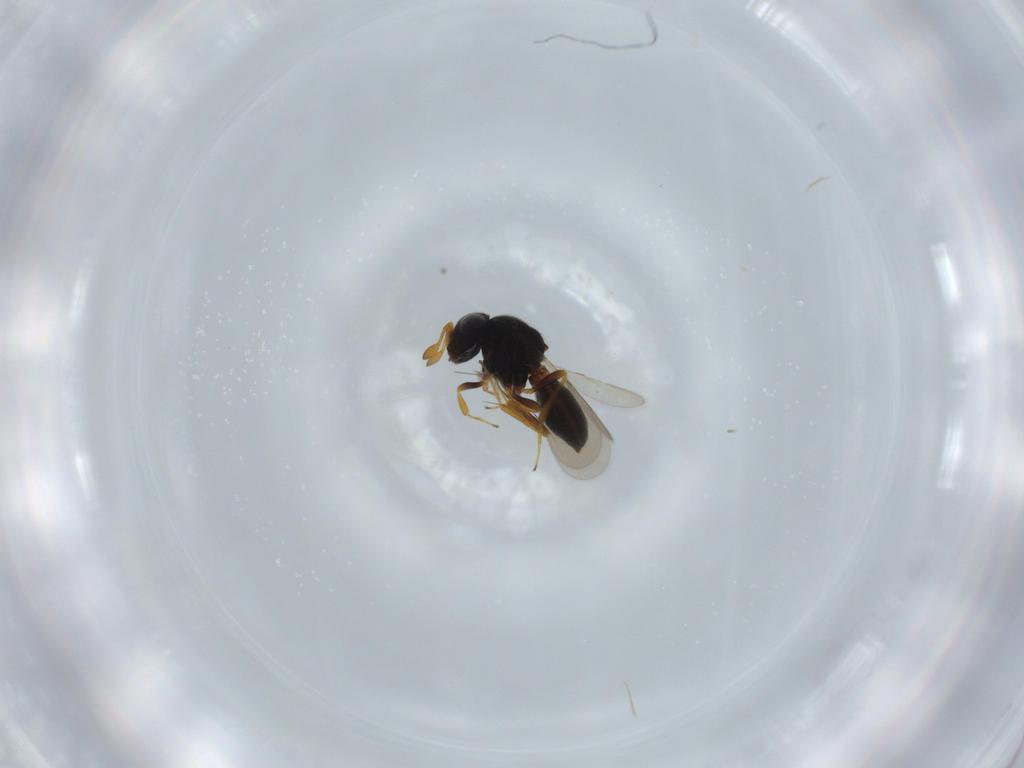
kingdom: Animalia
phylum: Arthropoda
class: Insecta
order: Hymenoptera
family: Scelionidae
